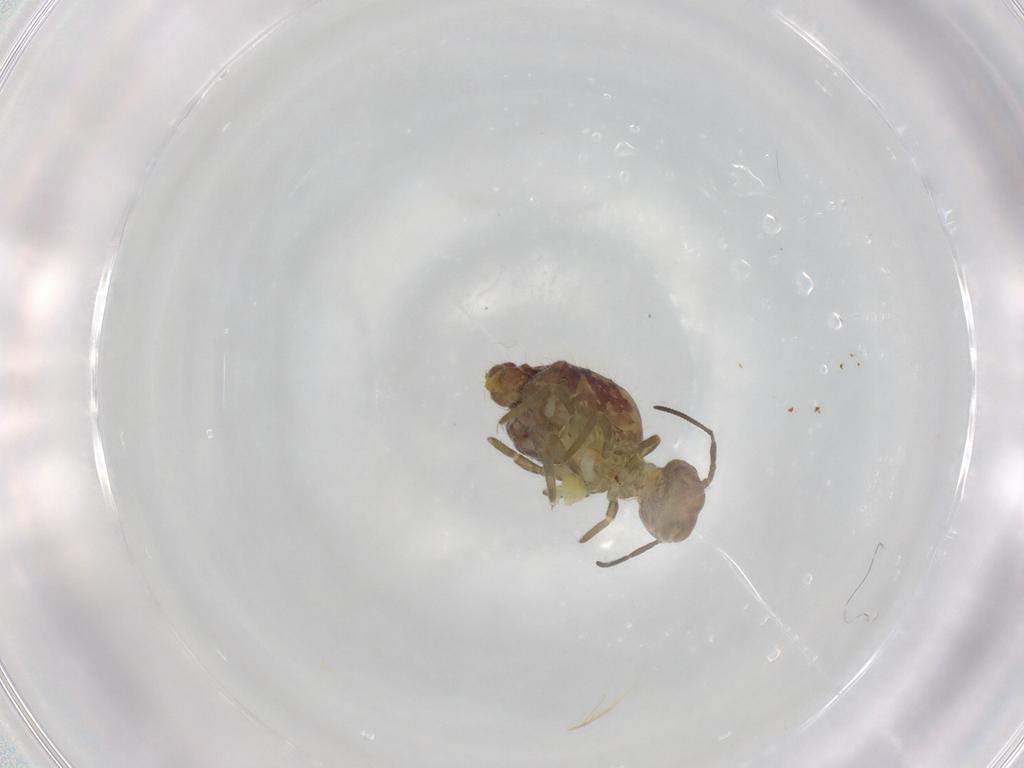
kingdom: Animalia
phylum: Arthropoda
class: Collembola
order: Symphypleona
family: Sminthuridae
